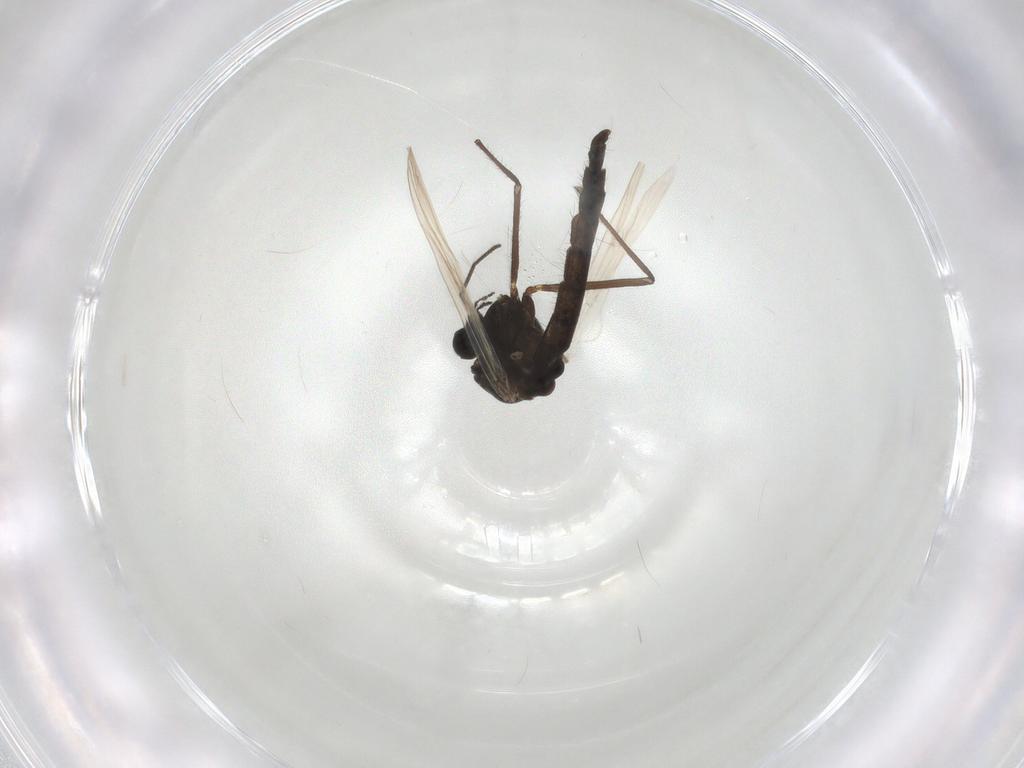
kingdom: Animalia
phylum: Arthropoda
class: Insecta
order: Diptera
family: Chironomidae
